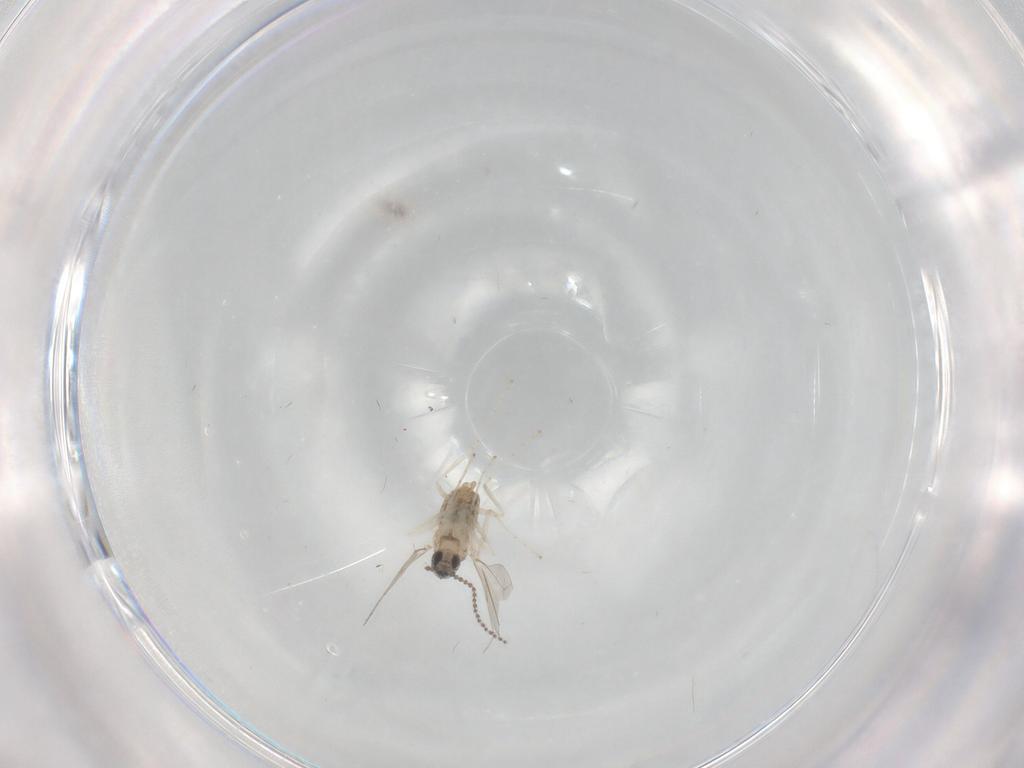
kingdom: Animalia
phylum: Arthropoda
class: Insecta
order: Diptera
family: Cecidomyiidae
